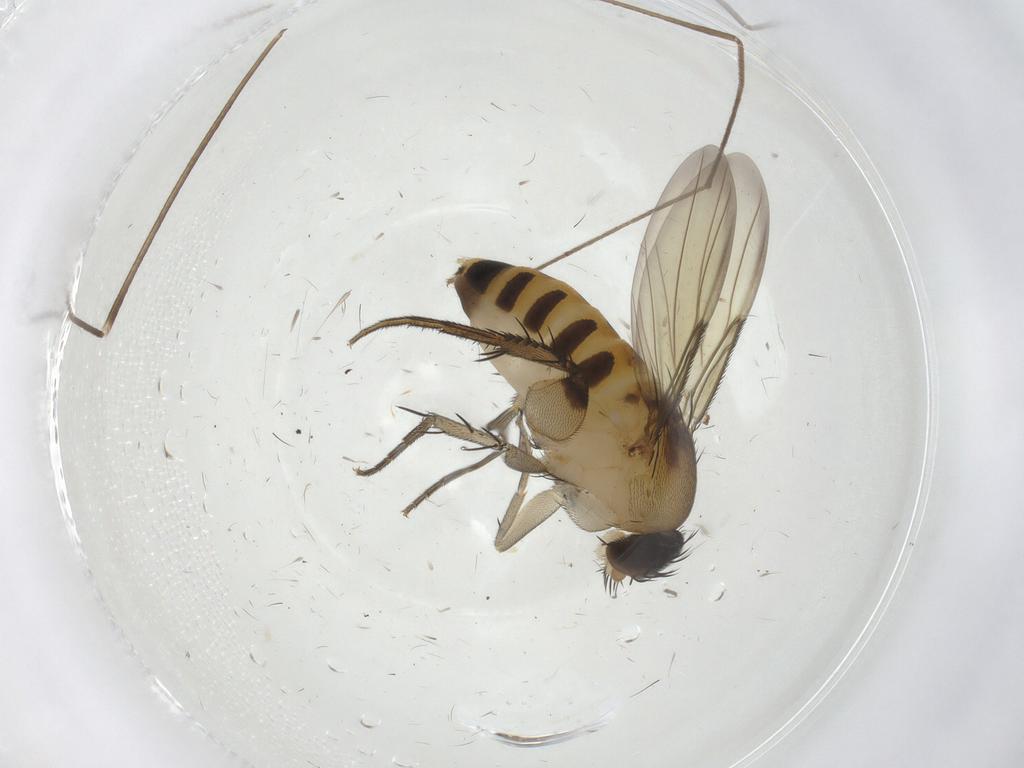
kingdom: Animalia
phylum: Arthropoda
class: Insecta
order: Diptera
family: Phoridae
